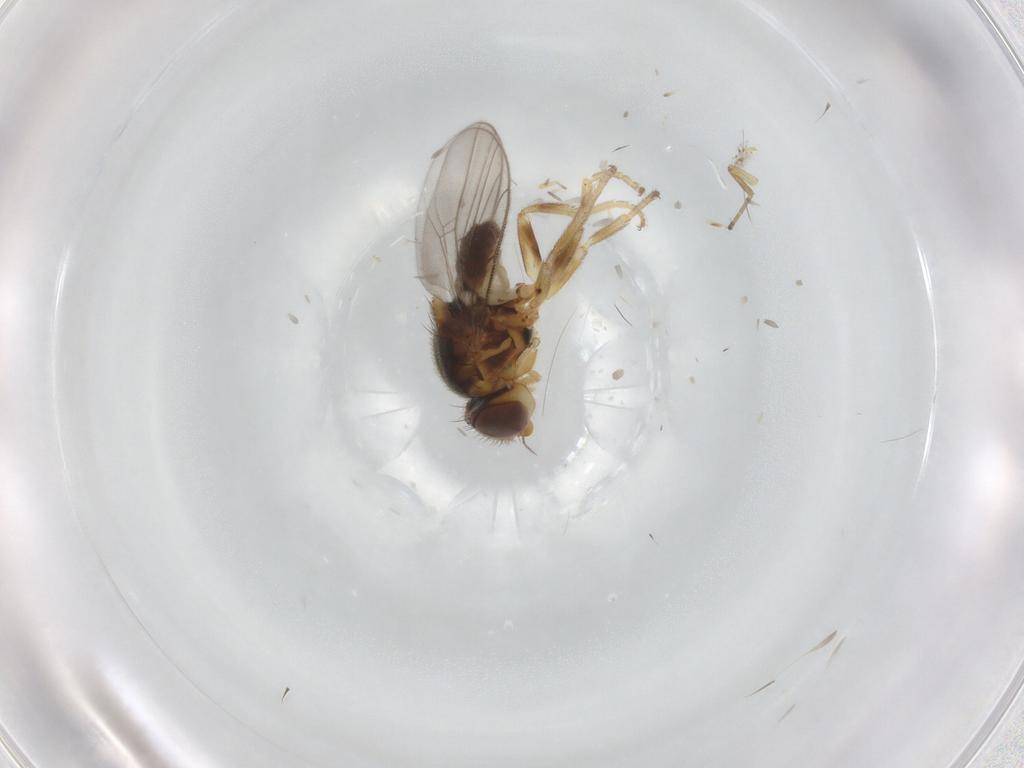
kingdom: Animalia
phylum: Arthropoda
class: Insecta
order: Diptera
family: Chloropidae
